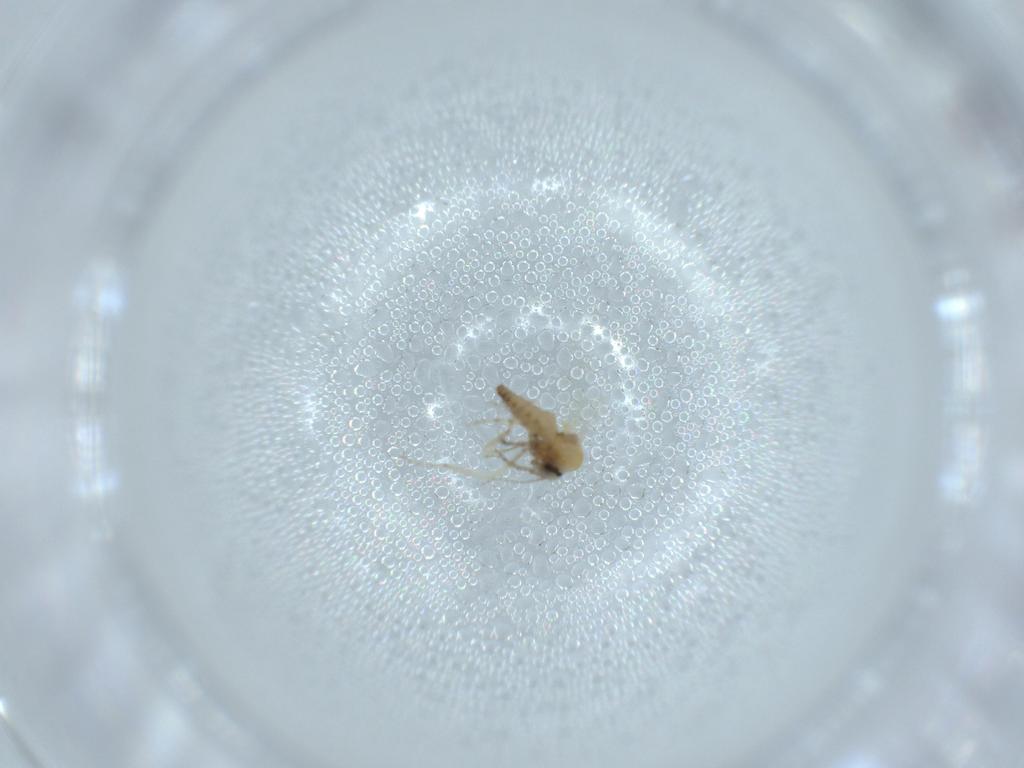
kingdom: Animalia
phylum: Arthropoda
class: Insecta
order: Diptera
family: Ceratopogonidae
